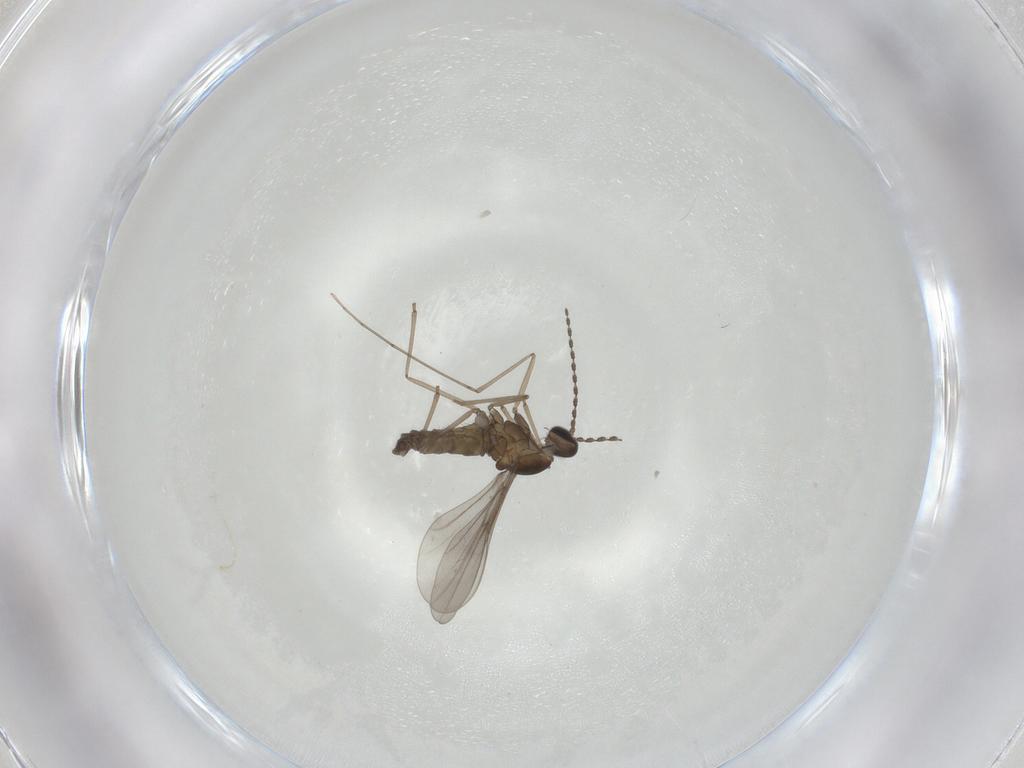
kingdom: Animalia
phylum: Arthropoda
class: Insecta
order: Diptera
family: Cecidomyiidae
